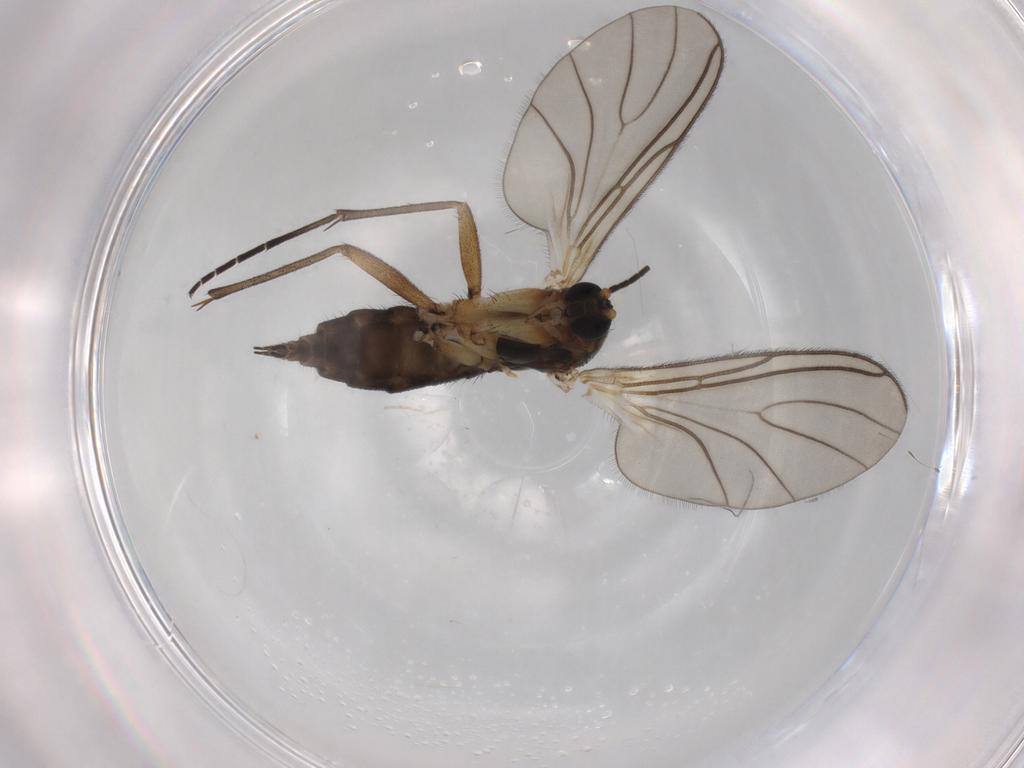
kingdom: Animalia
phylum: Arthropoda
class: Insecta
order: Diptera
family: Sciaridae
